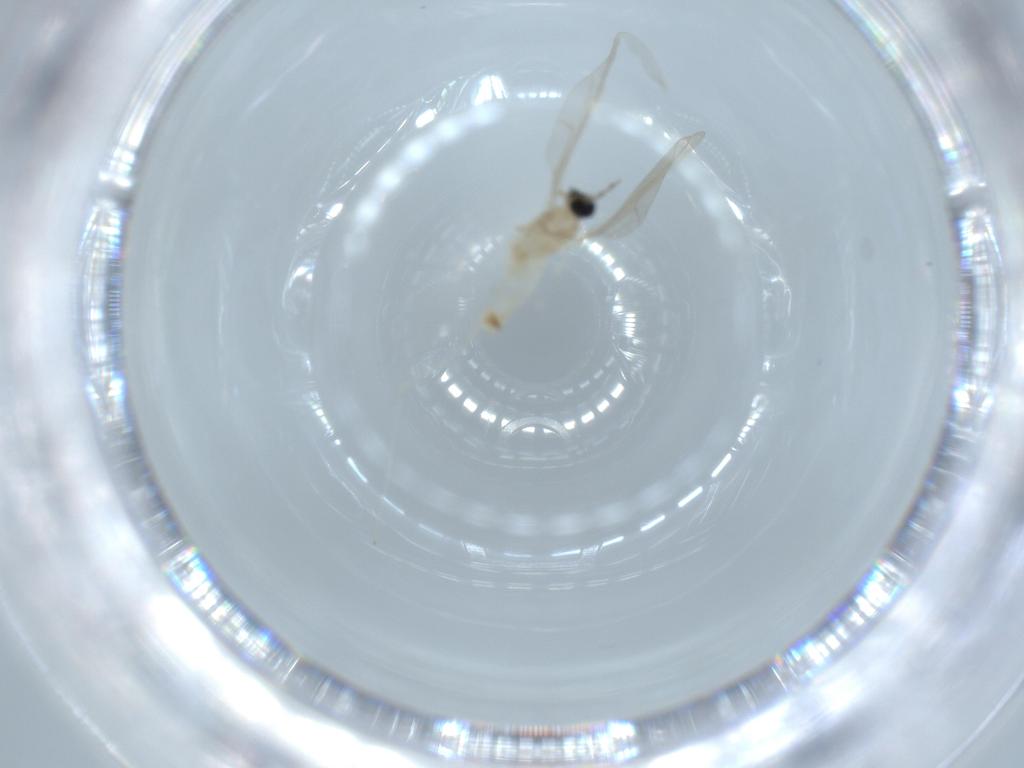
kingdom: Animalia
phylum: Arthropoda
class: Insecta
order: Diptera
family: Cecidomyiidae
